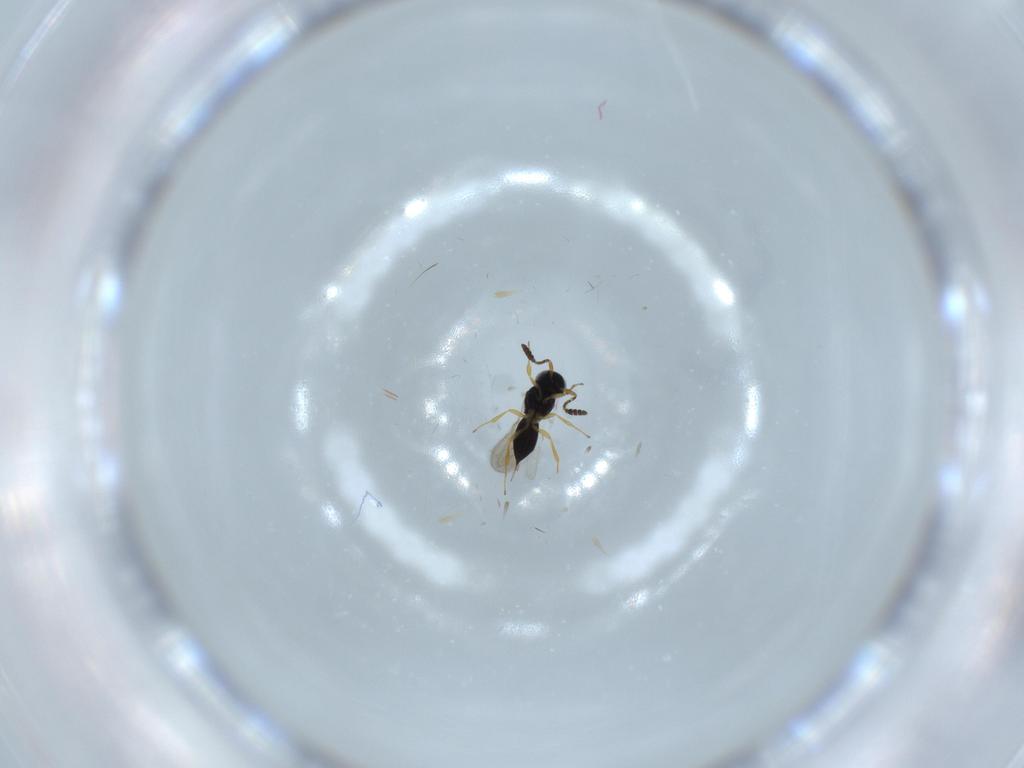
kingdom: Animalia
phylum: Arthropoda
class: Insecta
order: Hymenoptera
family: Scelionidae
